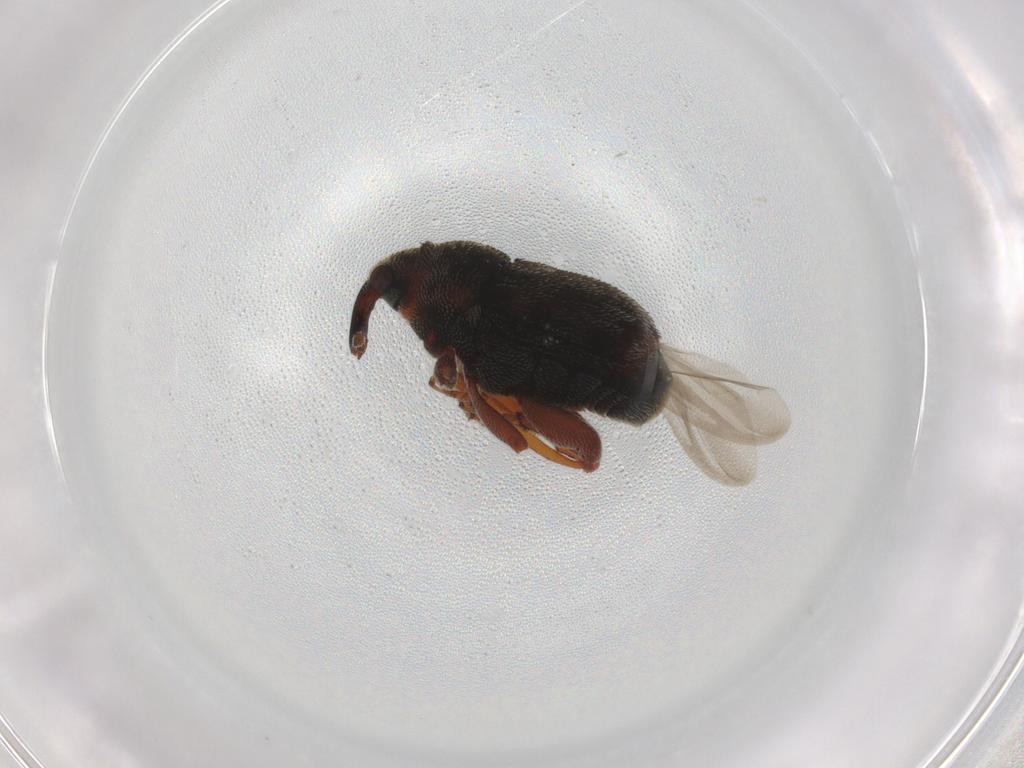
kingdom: Animalia
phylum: Arthropoda
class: Insecta
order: Coleoptera
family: Curculionidae
